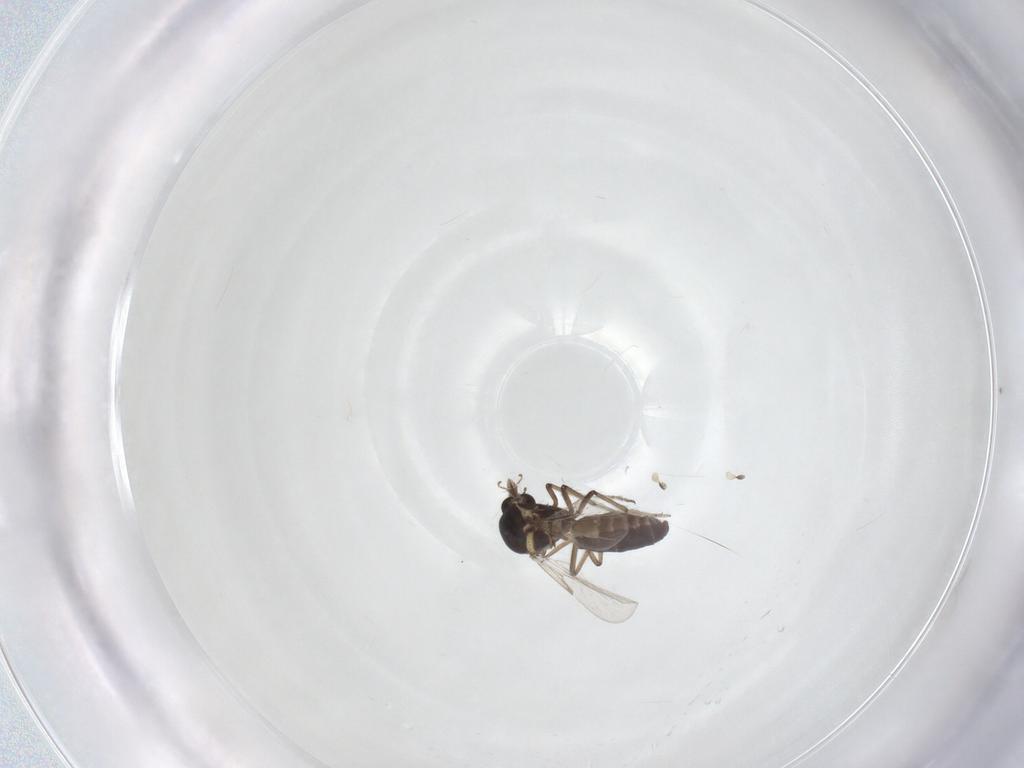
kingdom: Animalia
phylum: Arthropoda
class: Insecta
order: Diptera
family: Ceratopogonidae
